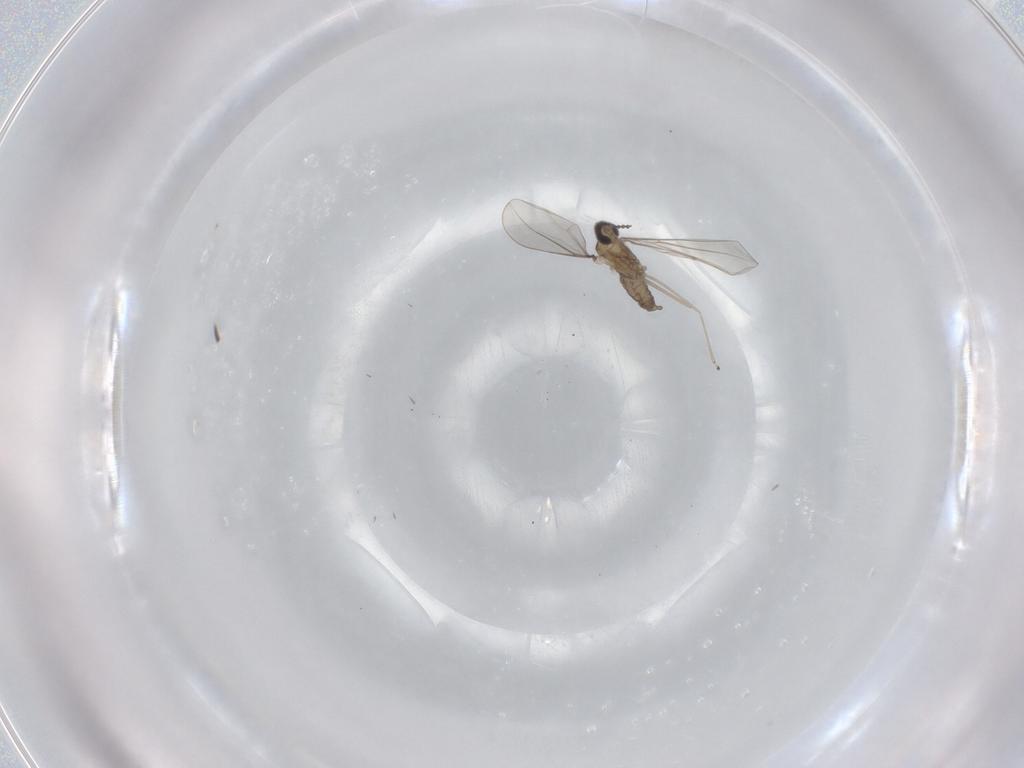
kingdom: Animalia
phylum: Arthropoda
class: Insecta
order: Diptera
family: Cecidomyiidae
